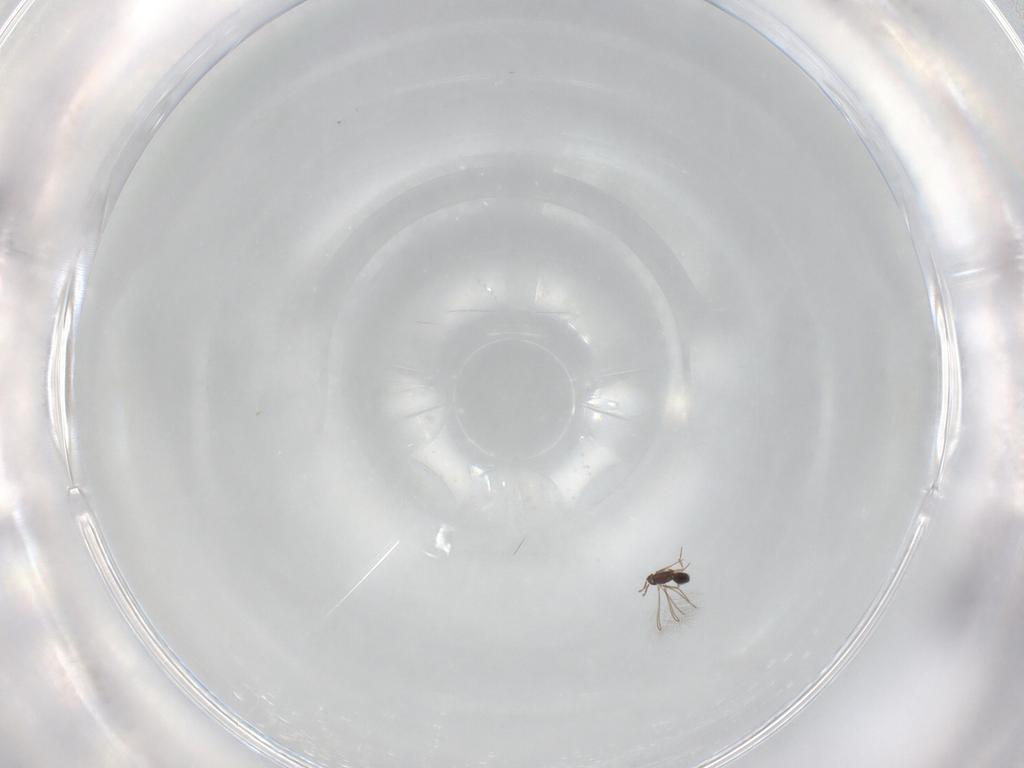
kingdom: Animalia
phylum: Arthropoda
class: Insecta
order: Hymenoptera
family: Mymaridae
